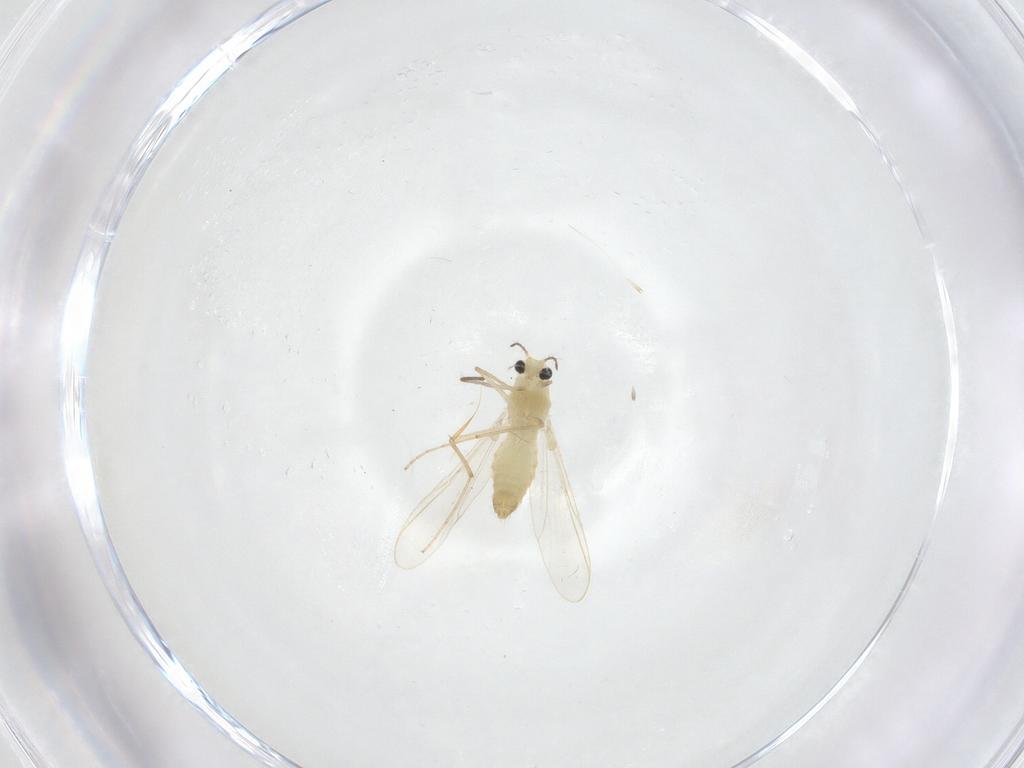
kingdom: Animalia
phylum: Arthropoda
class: Insecta
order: Diptera
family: Chironomidae
